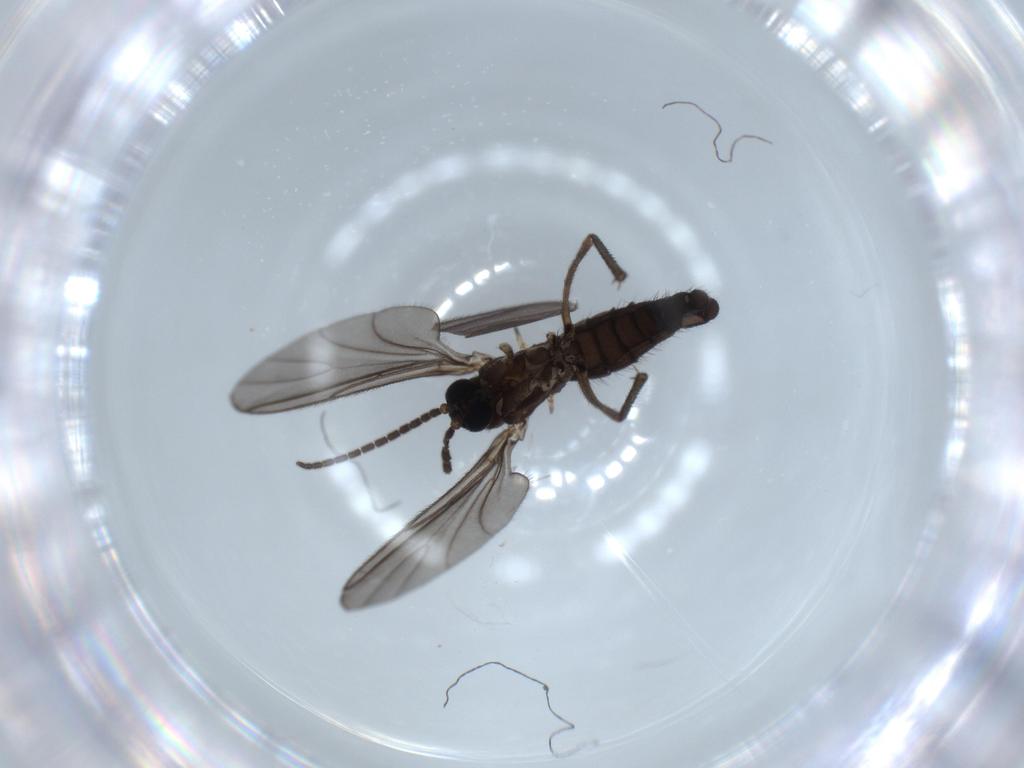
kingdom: Animalia
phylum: Arthropoda
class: Insecta
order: Diptera
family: Sciaridae
